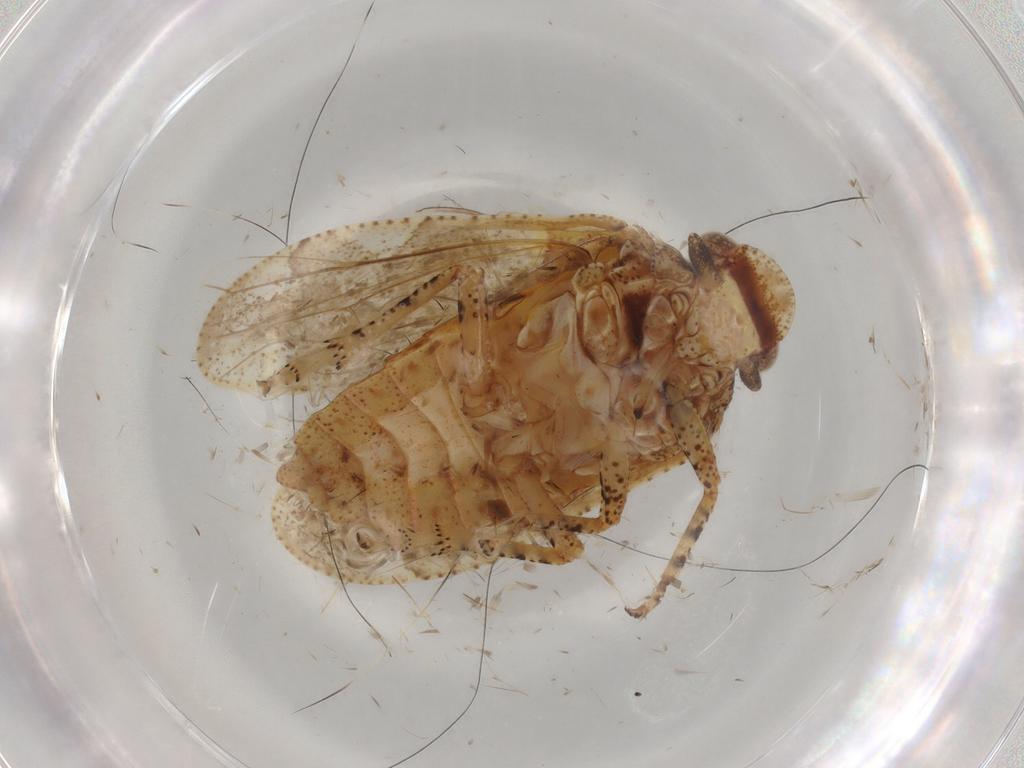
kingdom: Animalia
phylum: Arthropoda
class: Insecta
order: Hemiptera
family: Tettigometridae
